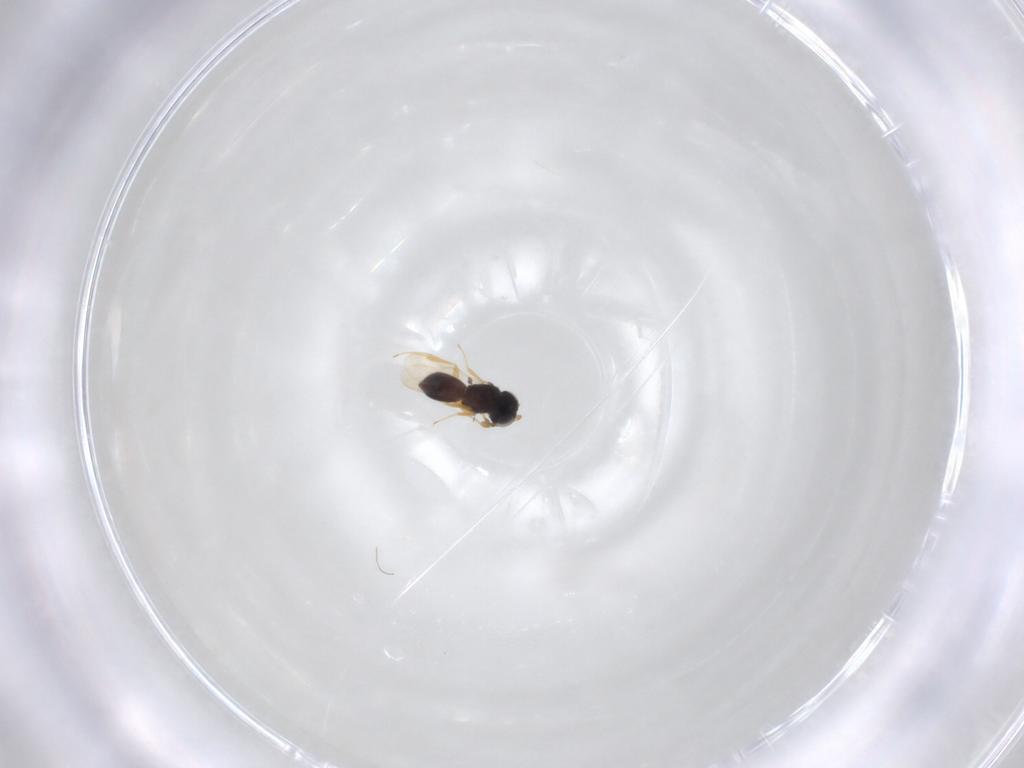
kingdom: Animalia
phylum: Arthropoda
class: Insecta
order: Hymenoptera
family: Scelionidae
